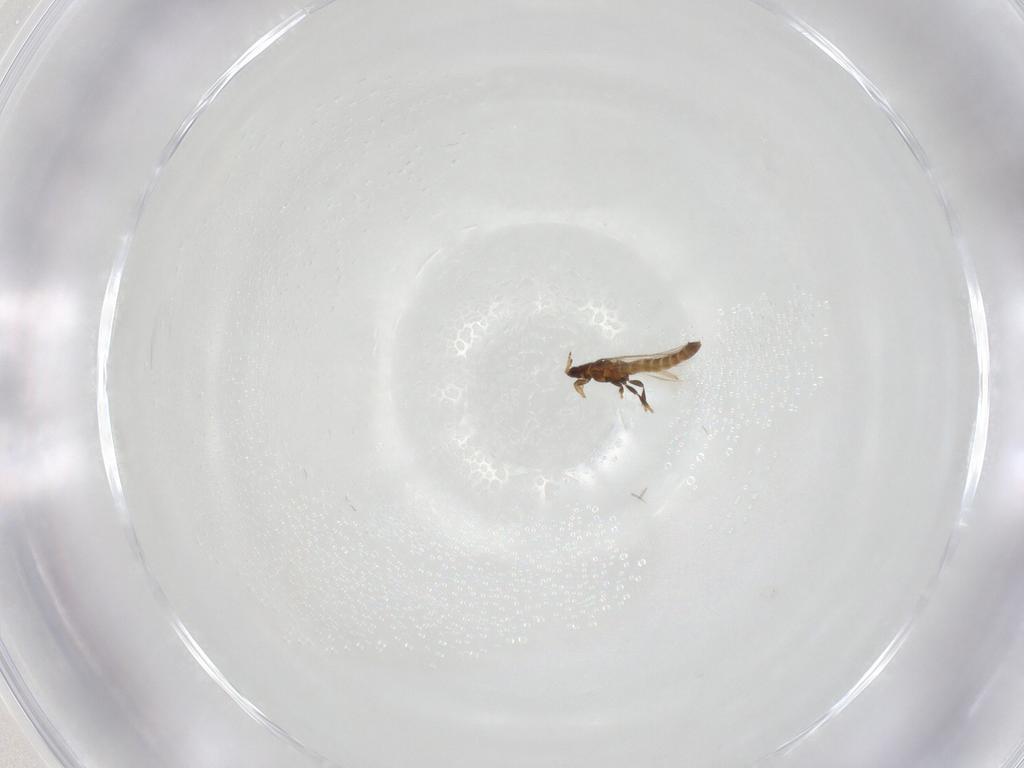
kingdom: Animalia
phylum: Arthropoda
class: Insecta
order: Thysanoptera
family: Thripidae
